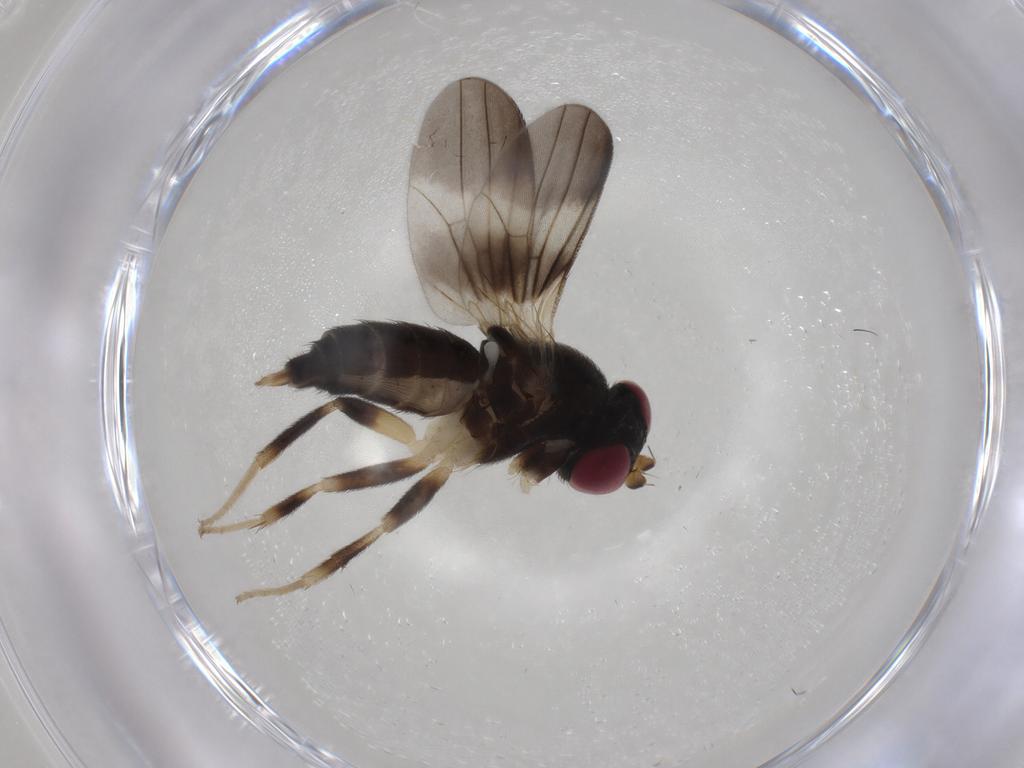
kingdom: Animalia
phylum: Arthropoda
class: Insecta
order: Diptera
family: Clusiidae
